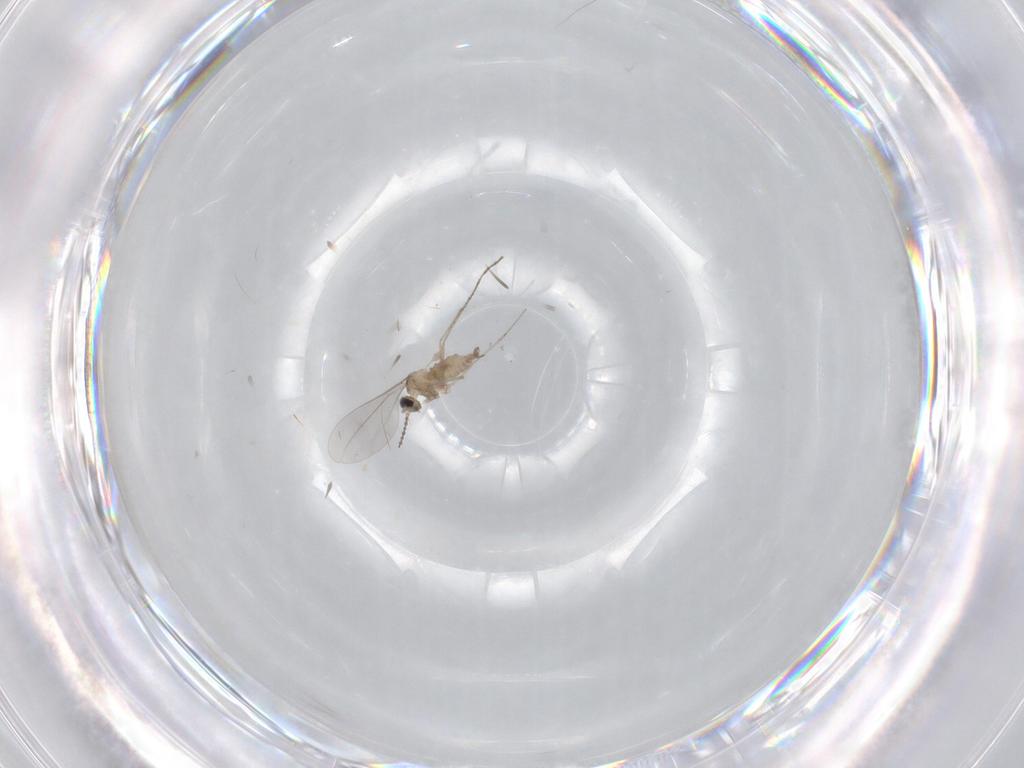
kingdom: Animalia
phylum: Arthropoda
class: Insecta
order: Diptera
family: Cecidomyiidae
